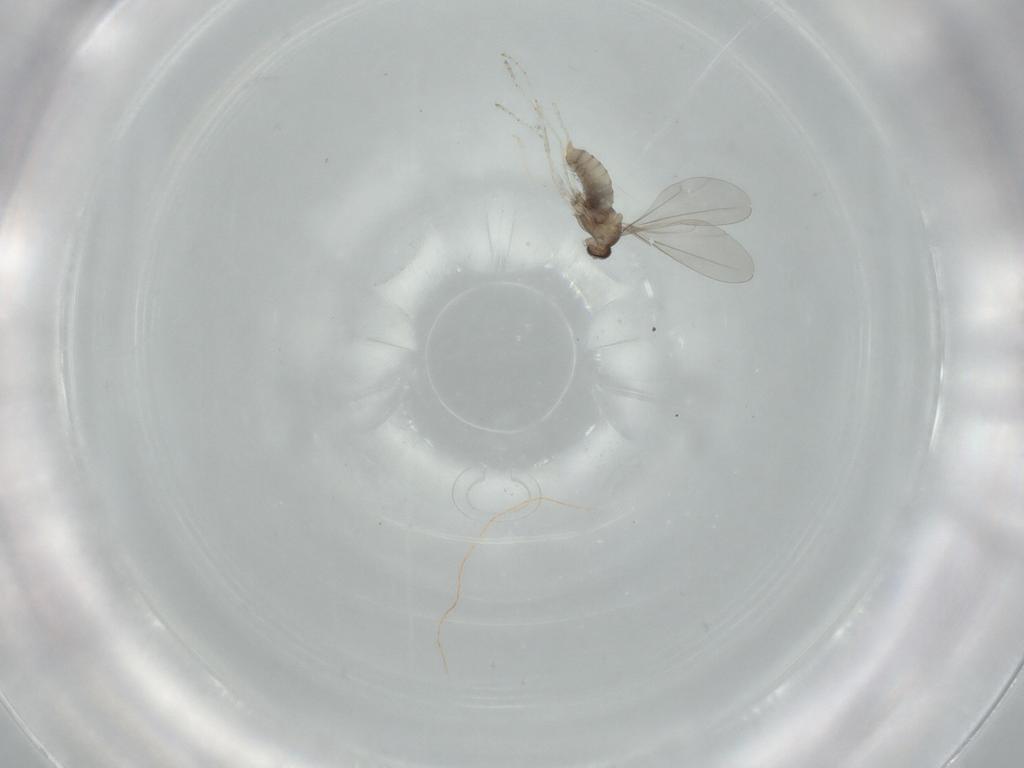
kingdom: Animalia
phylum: Arthropoda
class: Insecta
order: Diptera
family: Cecidomyiidae
